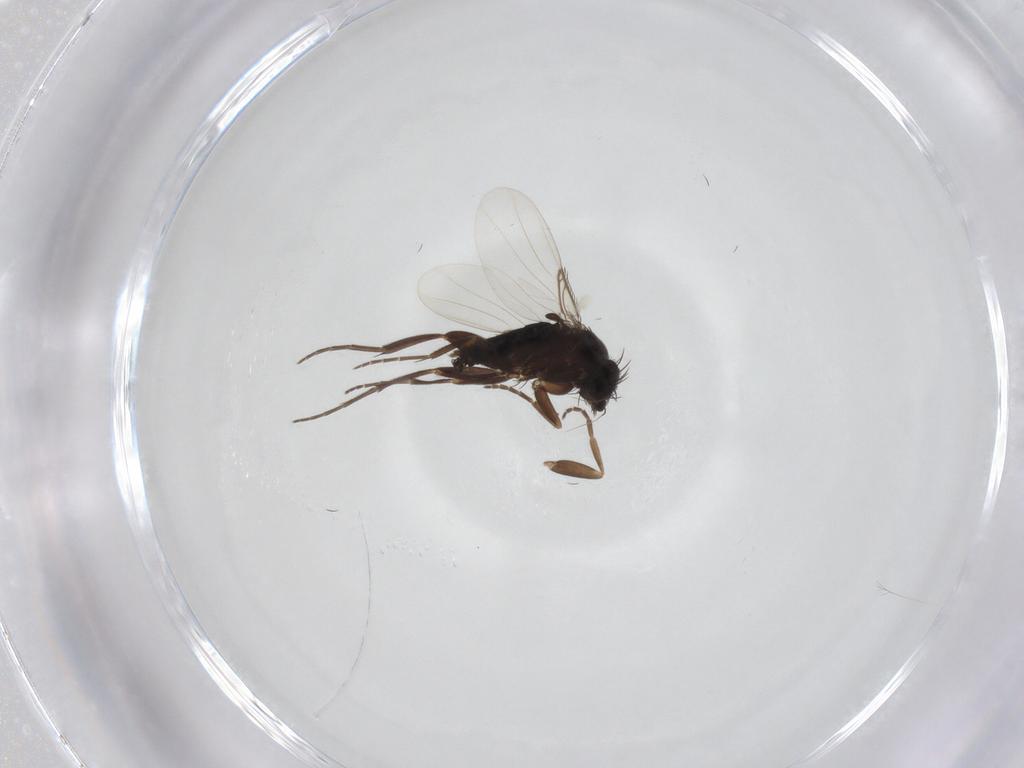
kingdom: Animalia
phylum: Arthropoda
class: Insecta
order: Diptera
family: Phoridae
